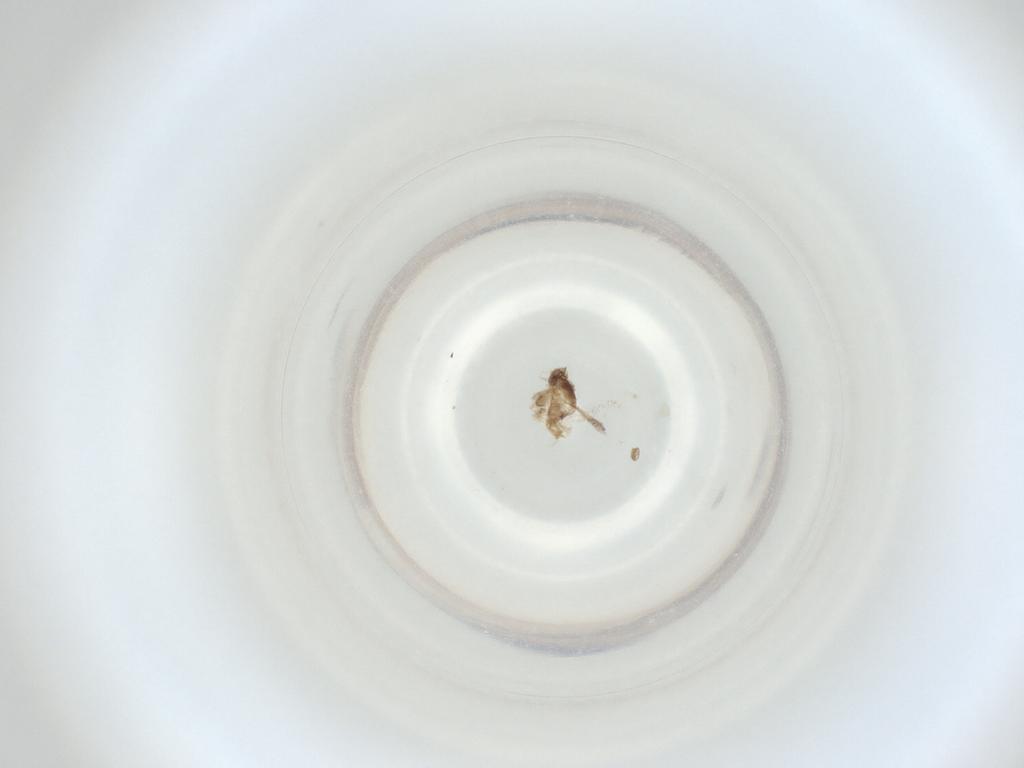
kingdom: Animalia
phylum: Arthropoda
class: Insecta
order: Diptera
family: Cecidomyiidae
